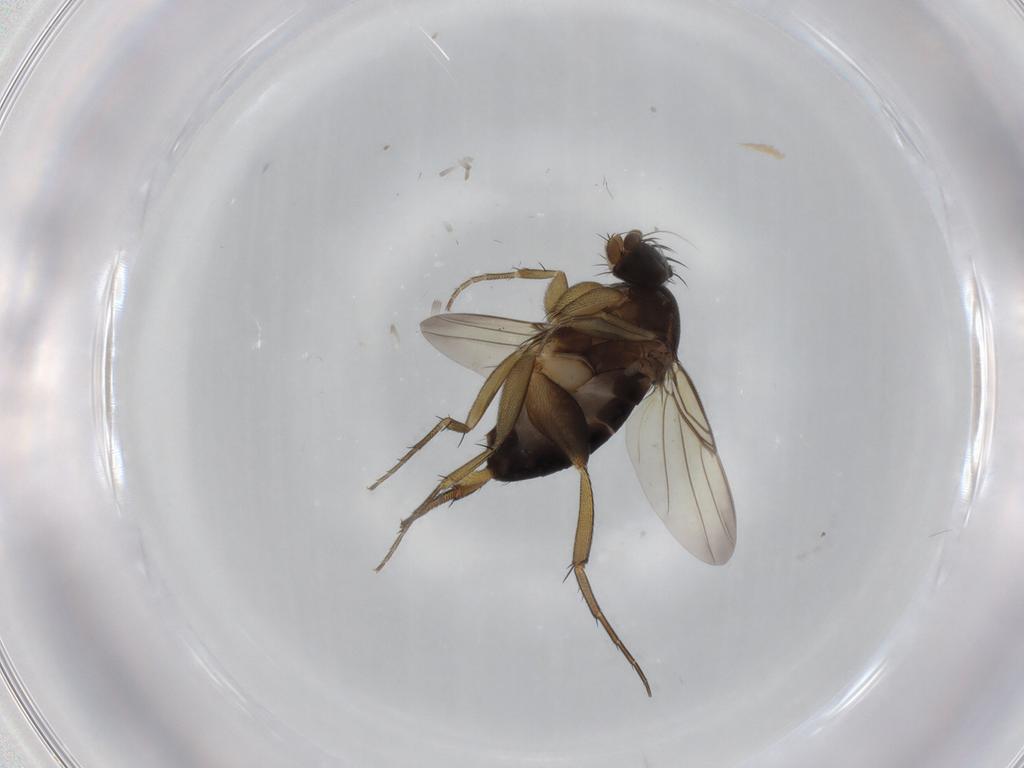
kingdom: Animalia
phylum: Arthropoda
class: Insecta
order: Diptera
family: Phoridae
